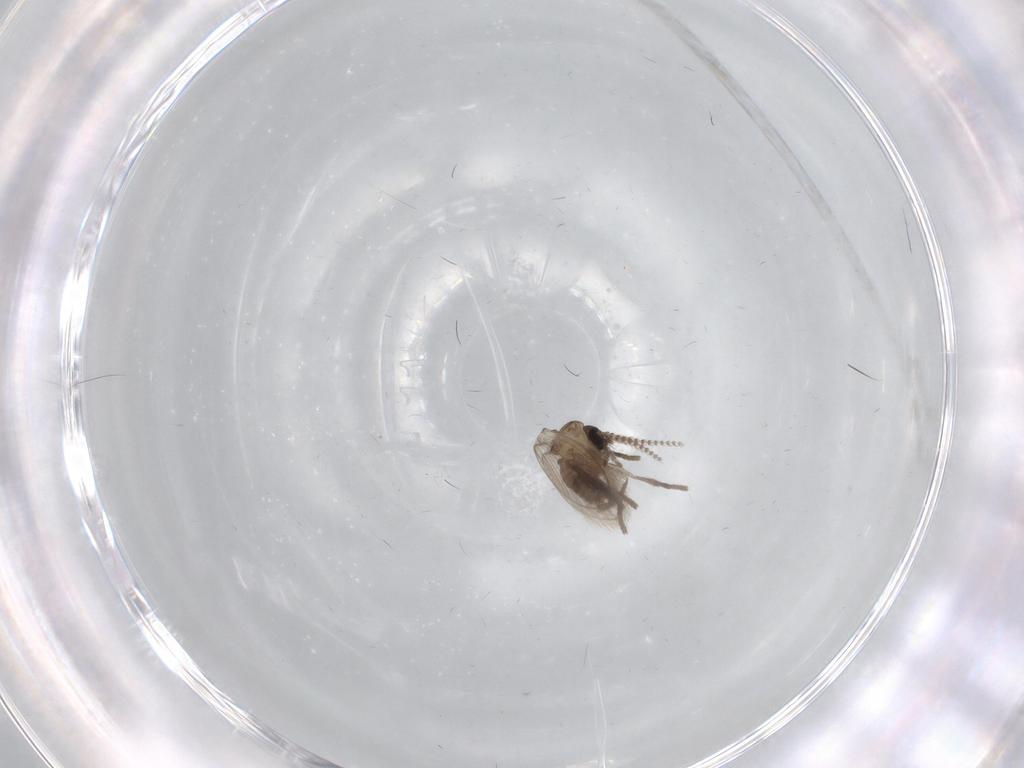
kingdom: Animalia
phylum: Arthropoda
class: Insecta
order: Diptera
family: Psychodidae
